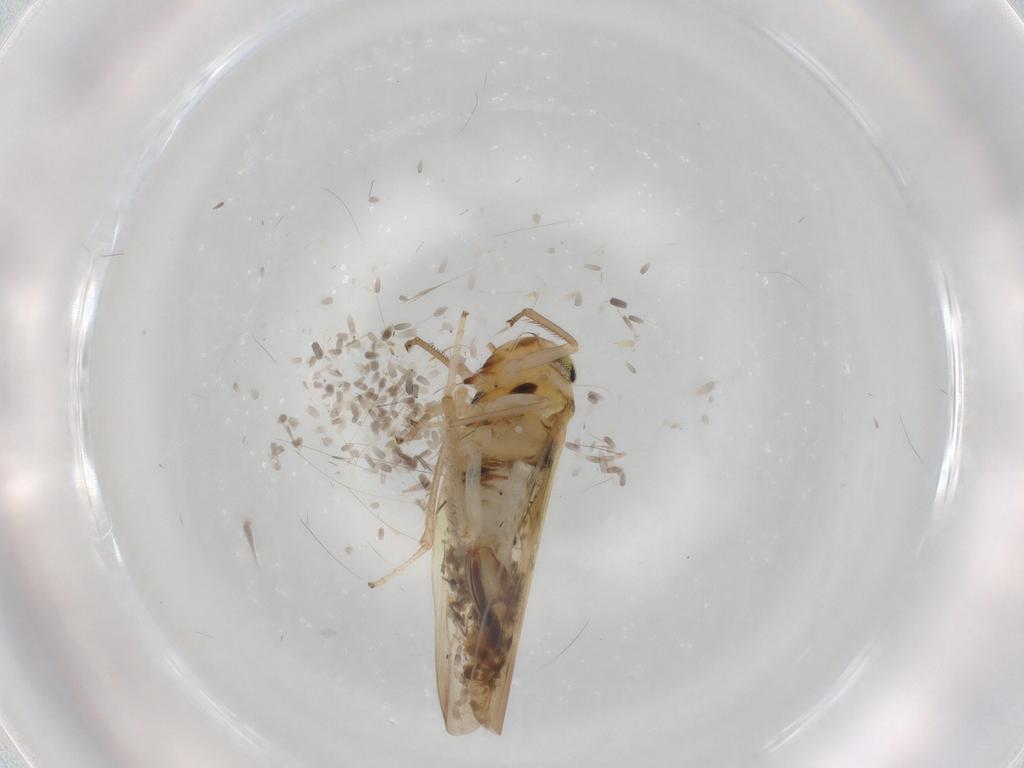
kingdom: Animalia
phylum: Arthropoda
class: Insecta
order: Hymenoptera
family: Dryinidae
